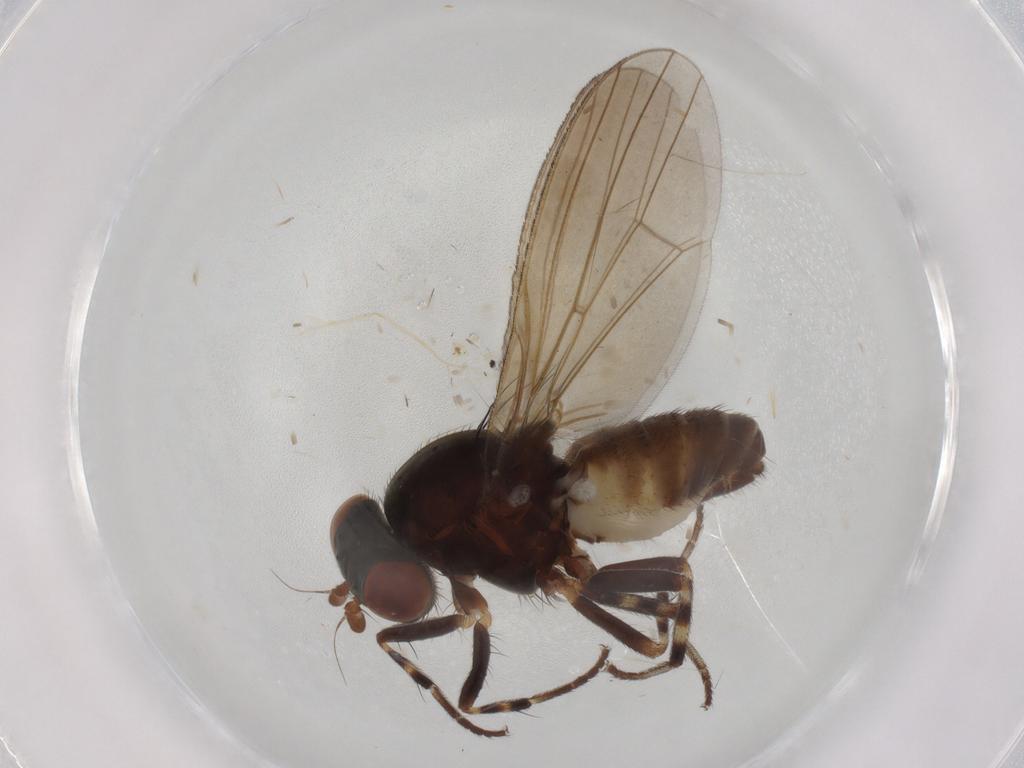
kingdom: Animalia
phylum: Arthropoda
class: Insecta
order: Diptera
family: Lauxaniidae
